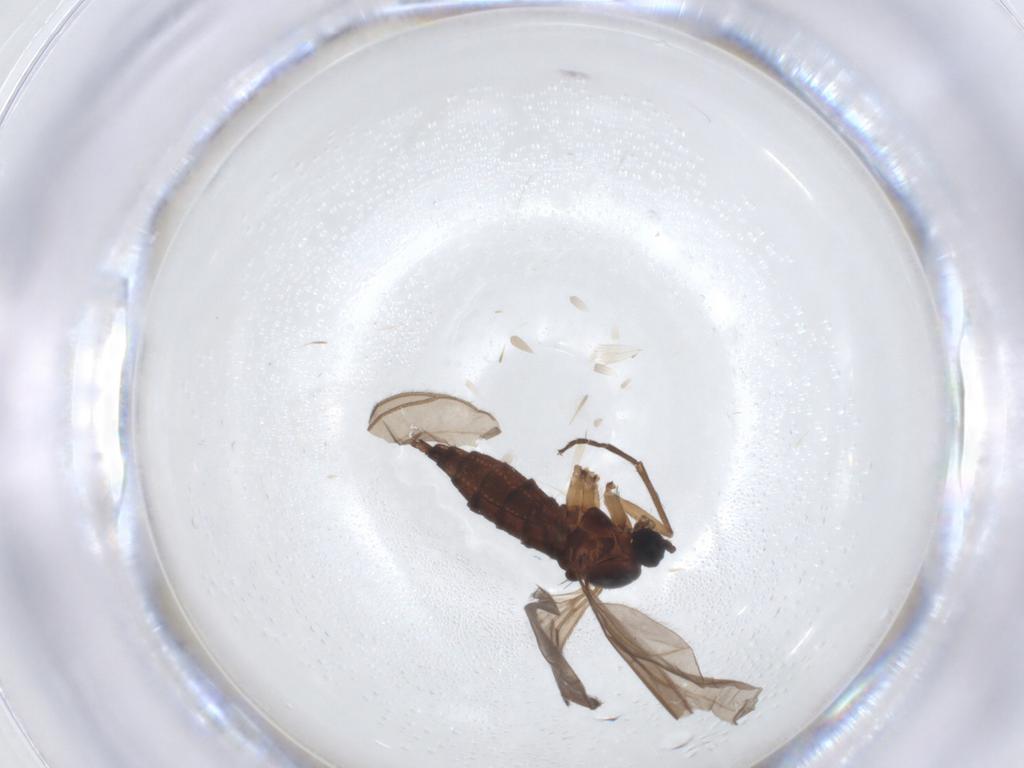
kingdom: Animalia
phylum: Arthropoda
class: Insecta
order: Diptera
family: Sciaridae
